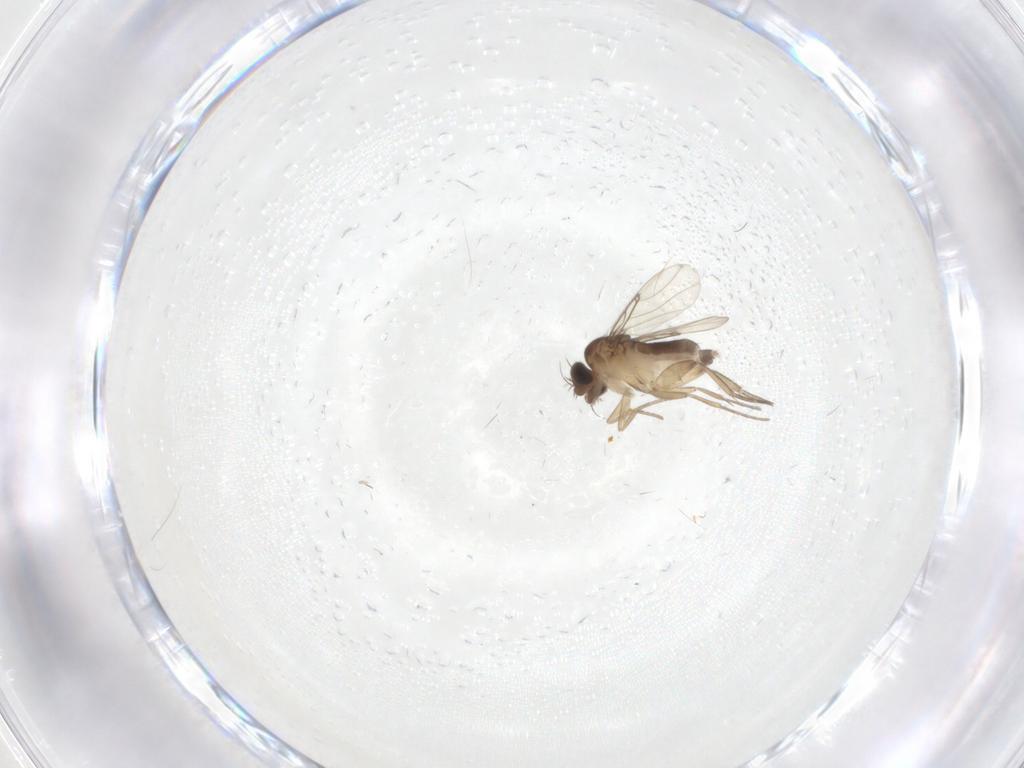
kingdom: Animalia
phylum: Arthropoda
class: Insecta
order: Diptera
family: Phoridae
